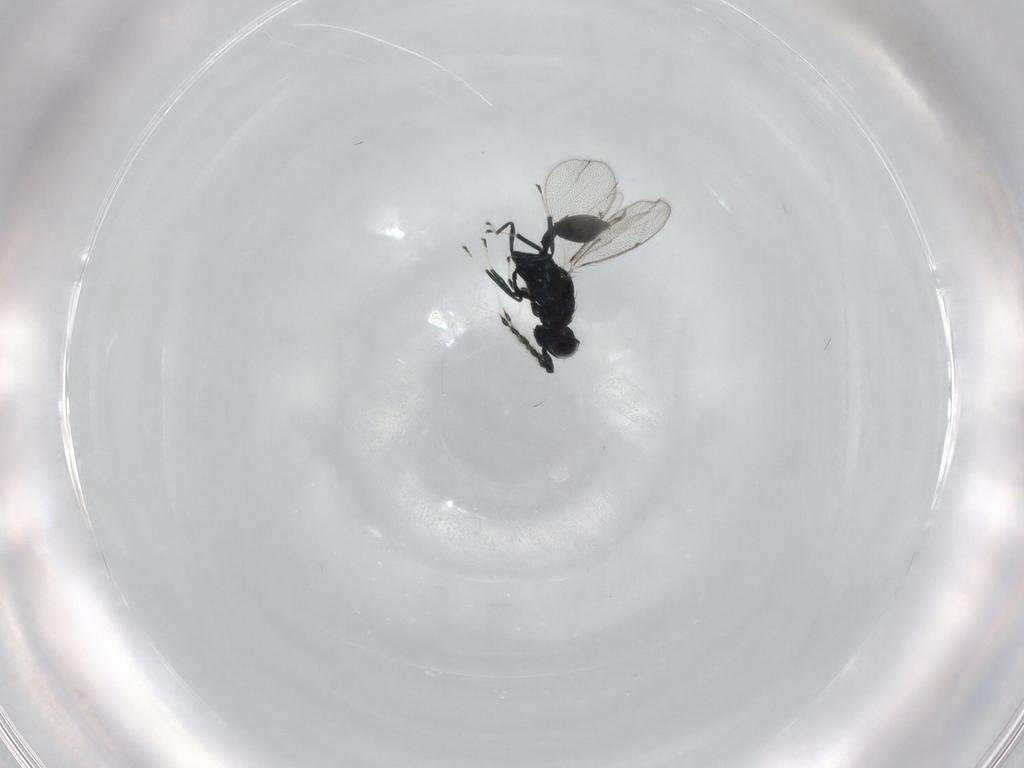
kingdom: Animalia
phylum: Arthropoda
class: Insecta
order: Hymenoptera
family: Eulophidae
